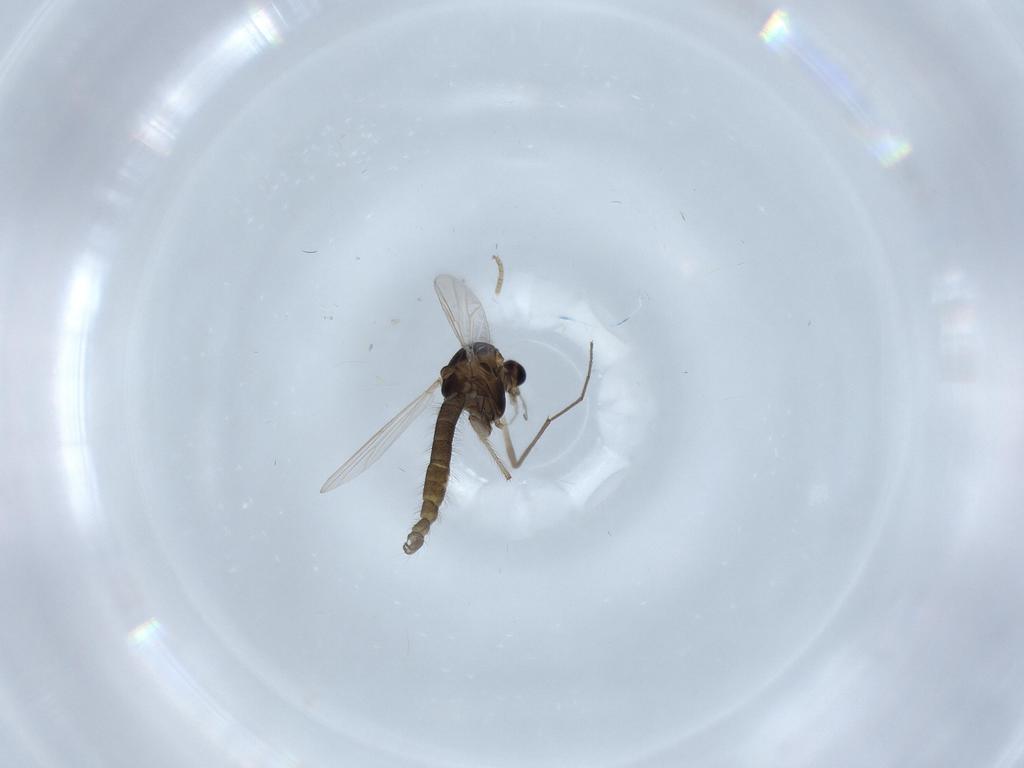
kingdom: Animalia
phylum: Arthropoda
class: Insecta
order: Diptera
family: Chironomidae
